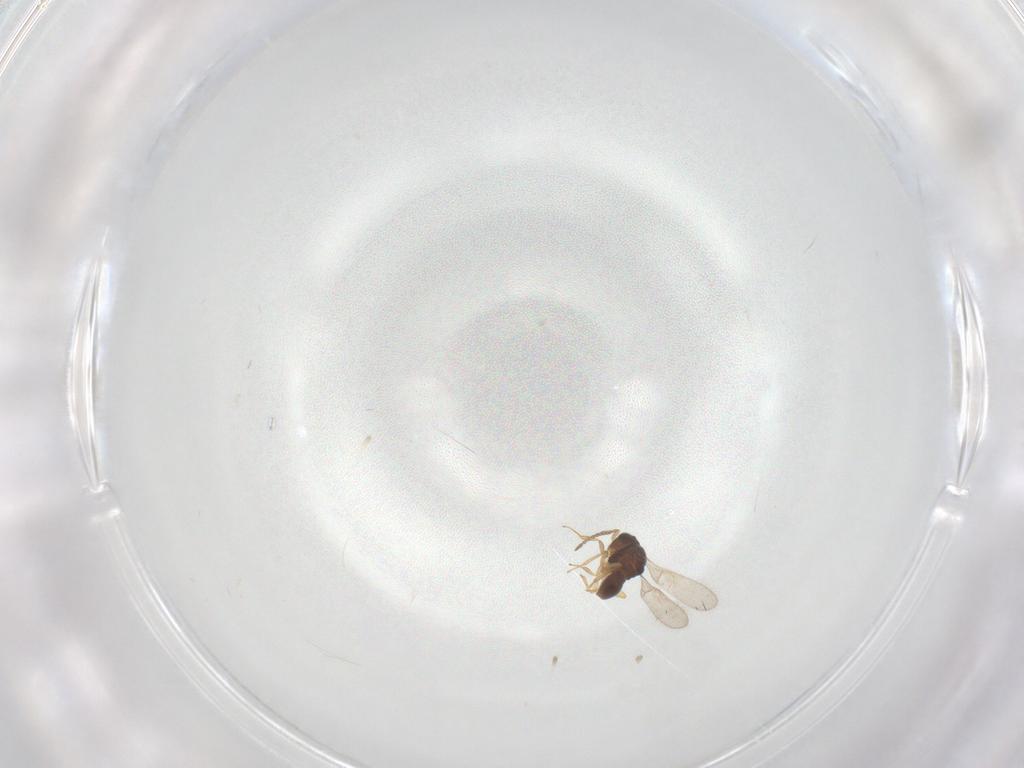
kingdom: Animalia
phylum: Arthropoda
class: Insecta
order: Hymenoptera
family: Scelionidae
